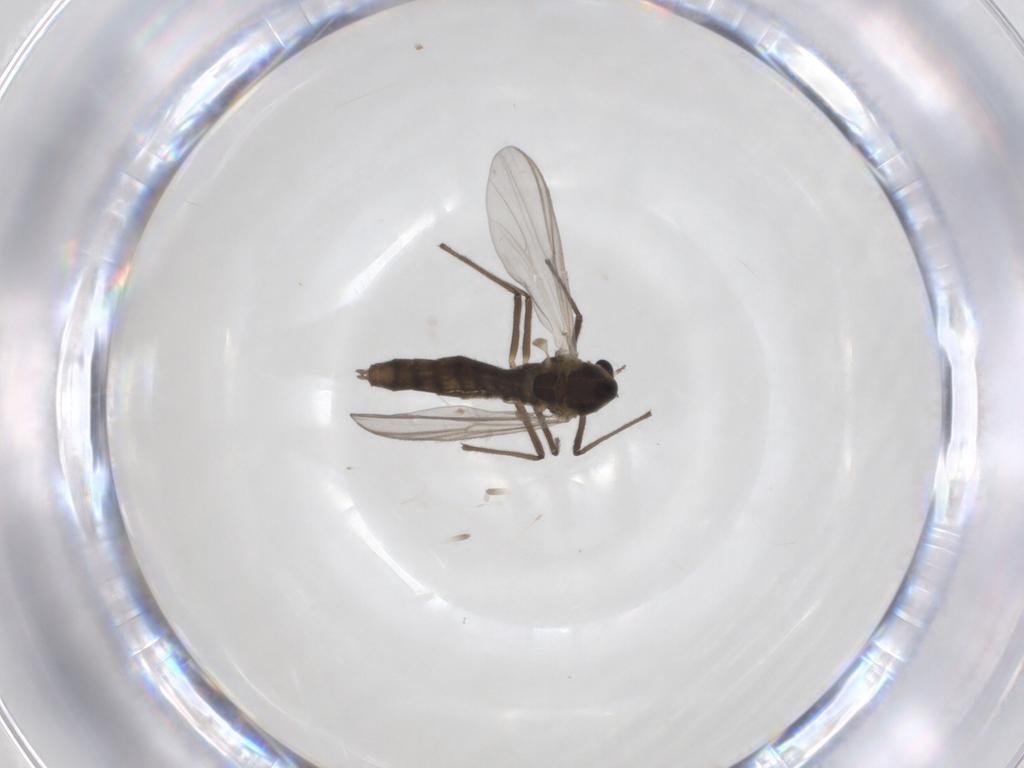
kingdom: Animalia
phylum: Arthropoda
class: Insecta
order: Diptera
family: Chironomidae
